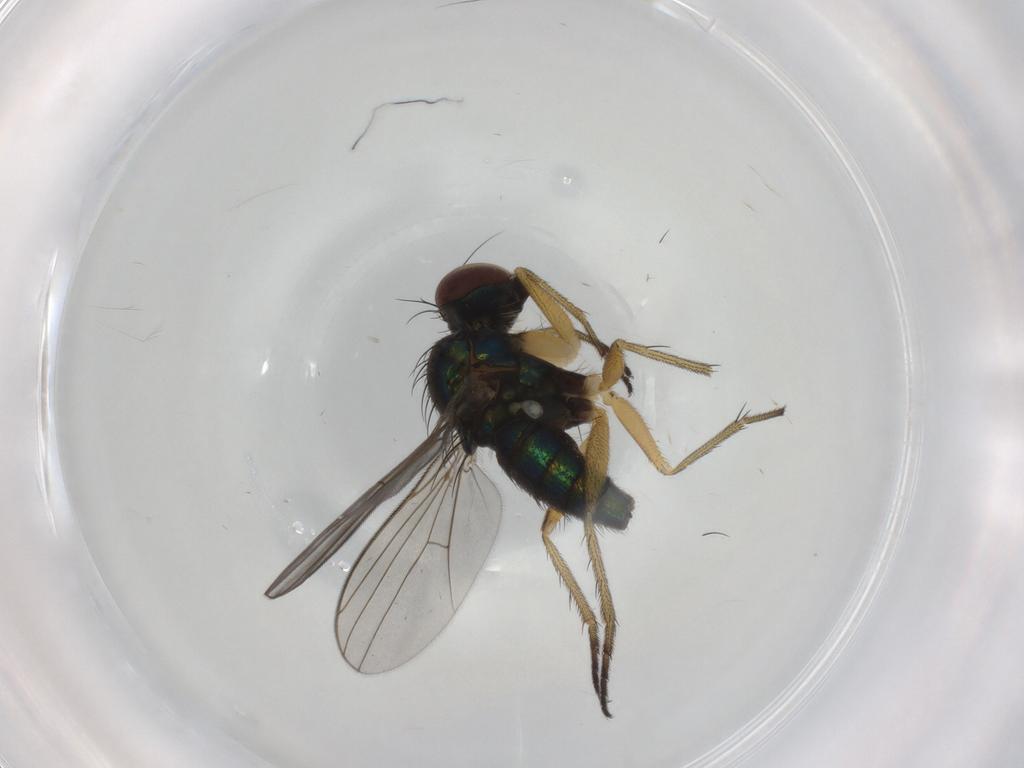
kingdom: Animalia
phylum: Arthropoda
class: Insecta
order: Diptera
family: Dolichopodidae
